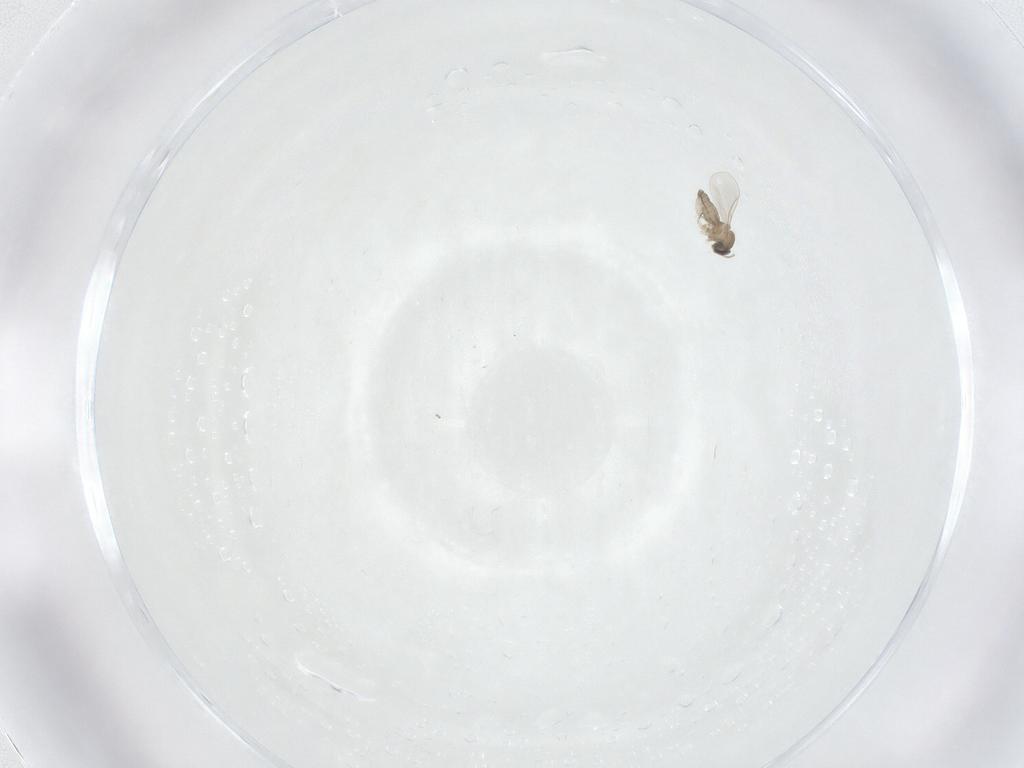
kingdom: Animalia
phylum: Arthropoda
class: Insecta
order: Diptera
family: Cecidomyiidae
